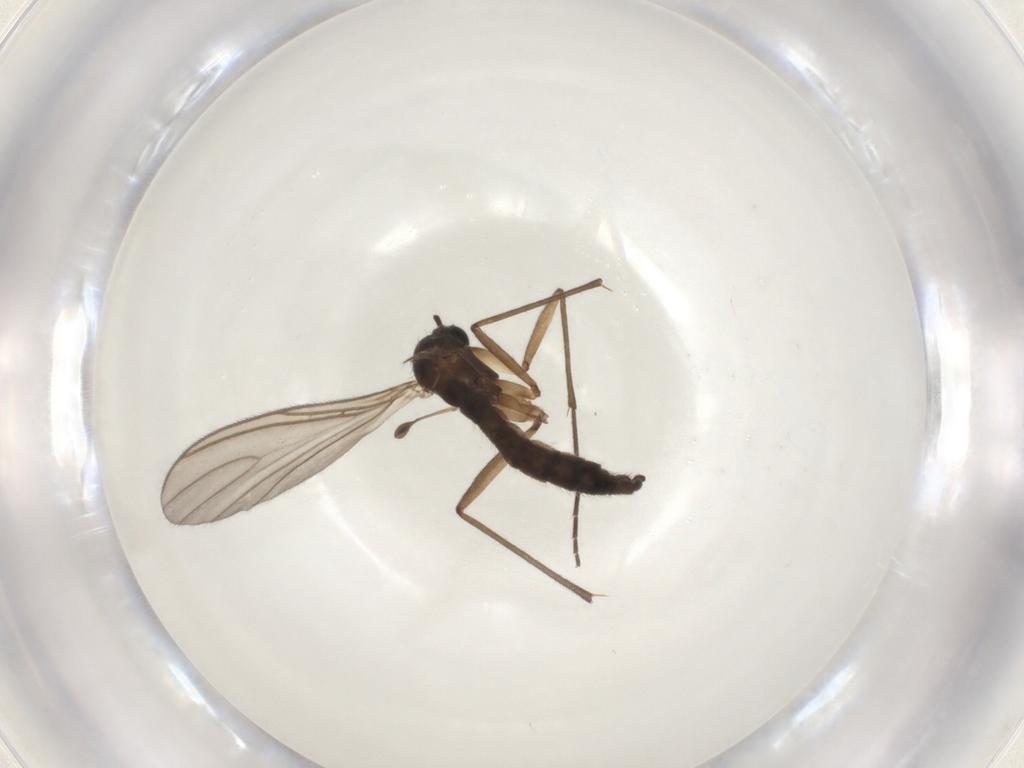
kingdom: Animalia
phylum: Arthropoda
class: Insecta
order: Diptera
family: Sciaridae
